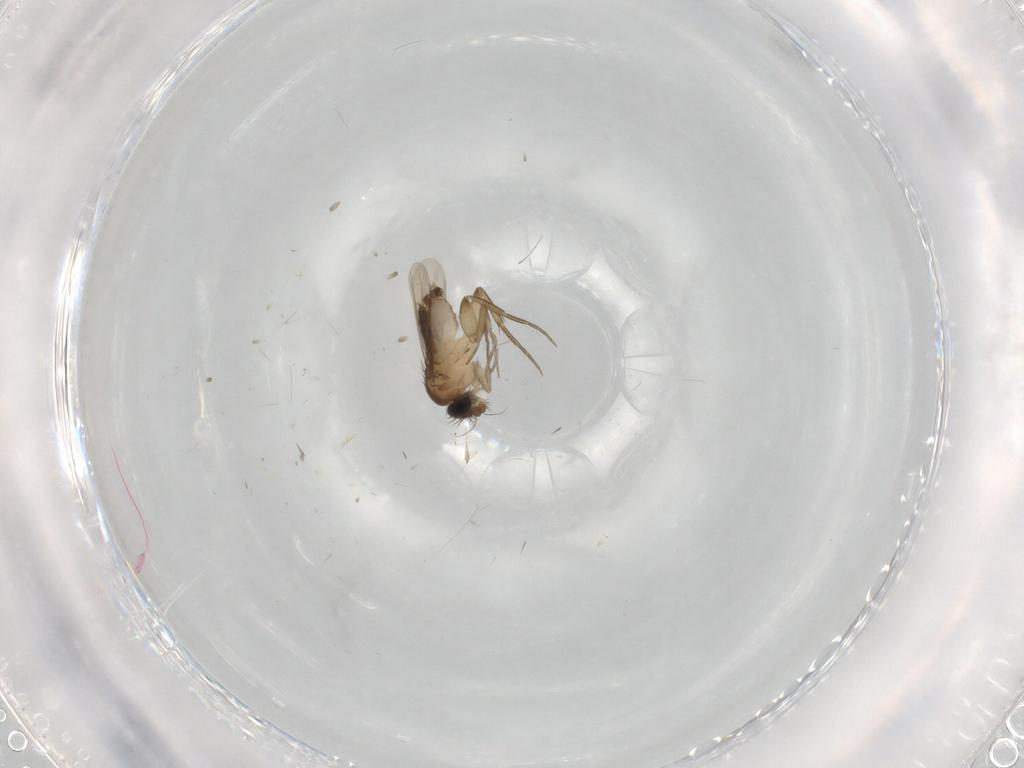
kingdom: Animalia
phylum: Arthropoda
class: Insecta
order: Diptera
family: Phoridae
